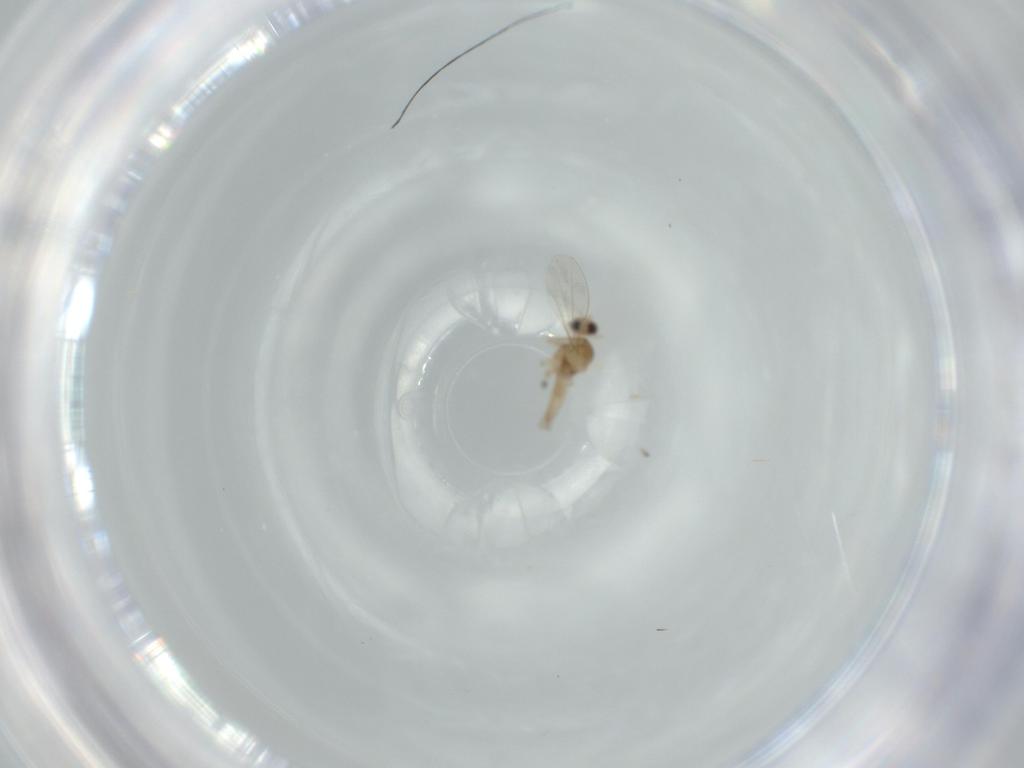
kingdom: Animalia
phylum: Arthropoda
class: Insecta
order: Diptera
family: Cecidomyiidae
